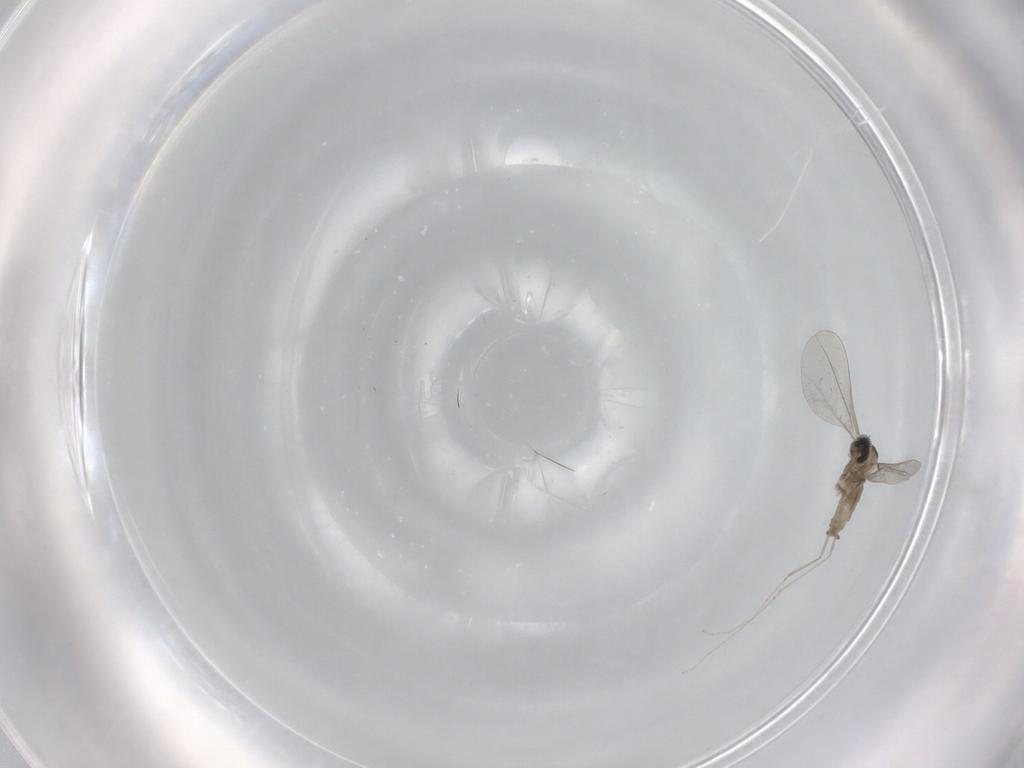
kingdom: Animalia
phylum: Arthropoda
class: Insecta
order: Diptera
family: Cecidomyiidae
